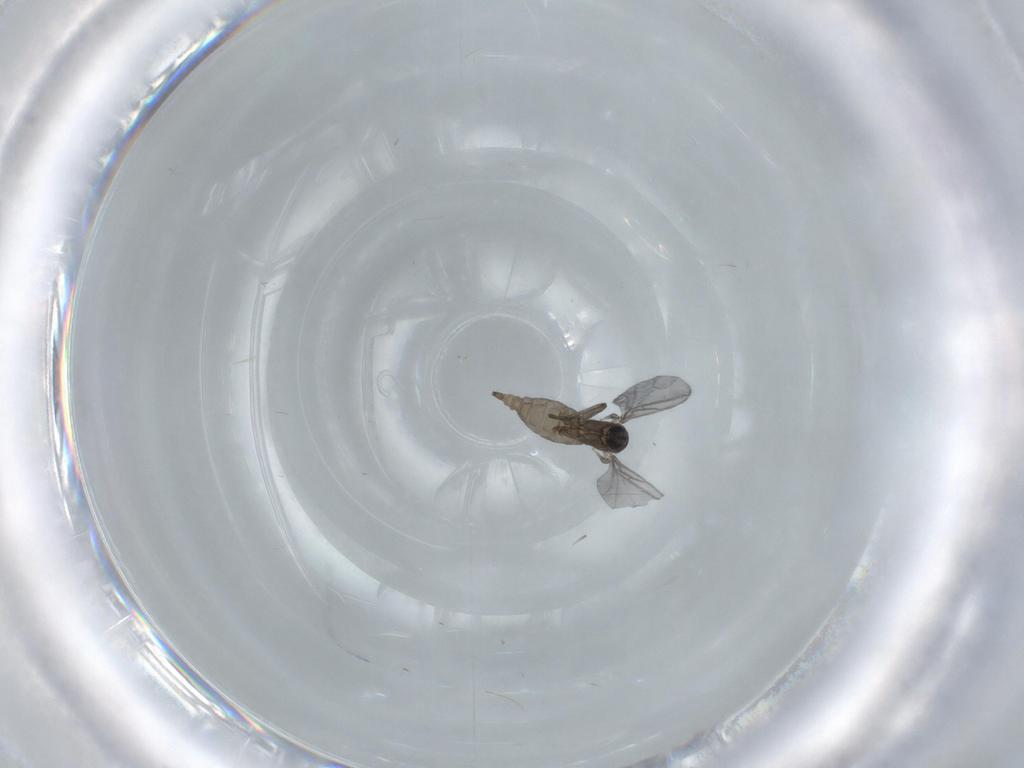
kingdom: Animalia
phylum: Arthropoda
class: Insecta
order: Diptera
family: Sciaridae
